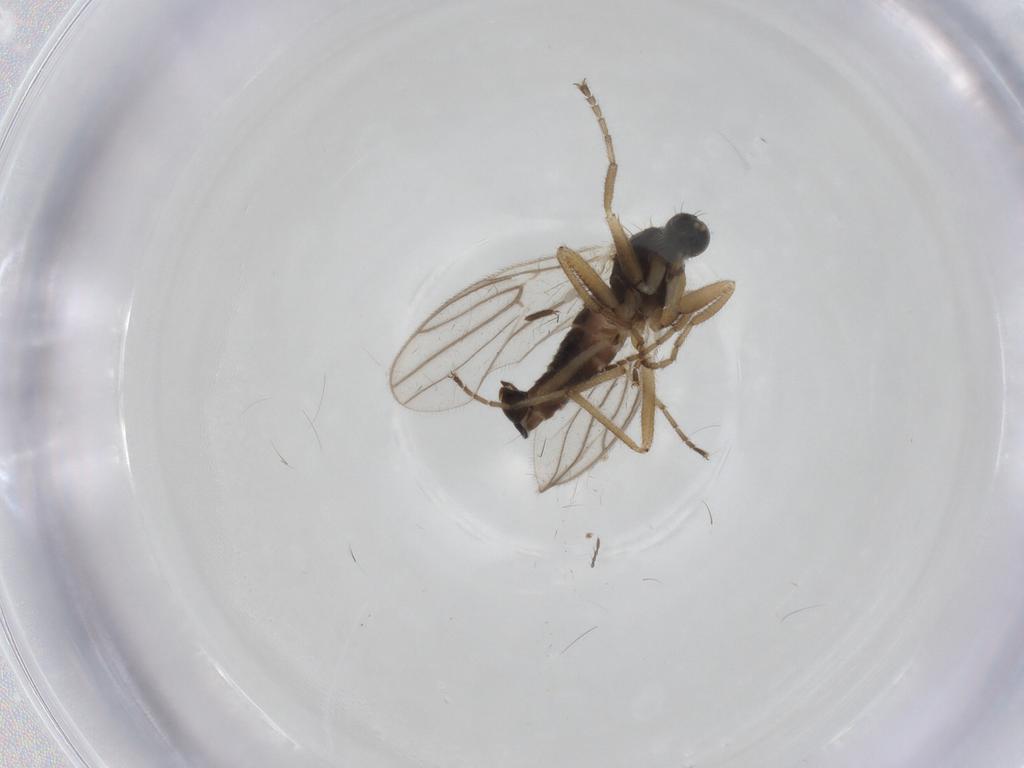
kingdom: Animalia
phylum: Arthropoda
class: Insecta
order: Diptera
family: Hybotidae
